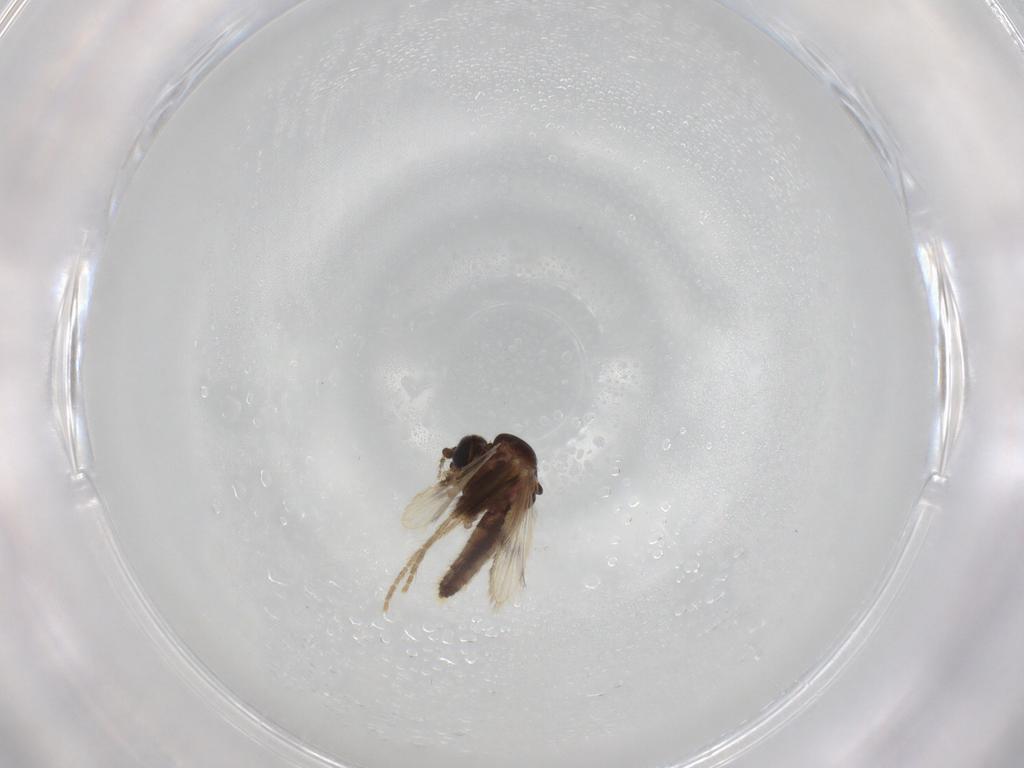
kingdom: Animalia
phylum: Arthropoda
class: Insecta
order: Diptera
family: Corethrellidae
